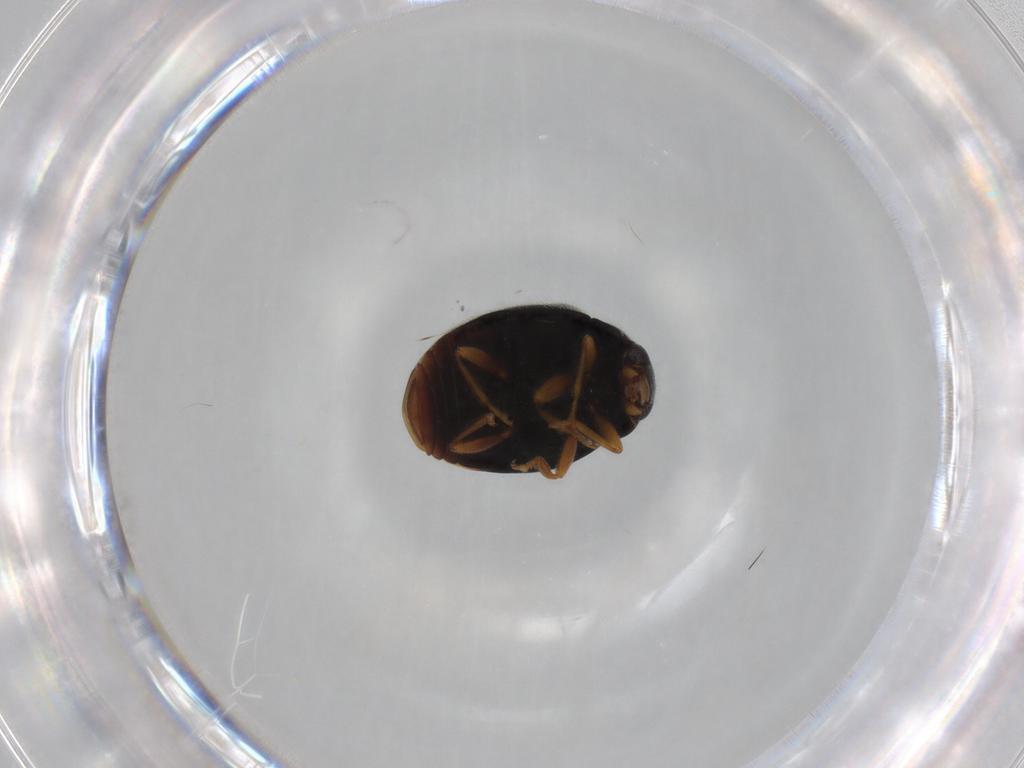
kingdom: Animalia
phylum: Arthropoda
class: Insecta
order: Coleoptera
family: Coccinellidae
